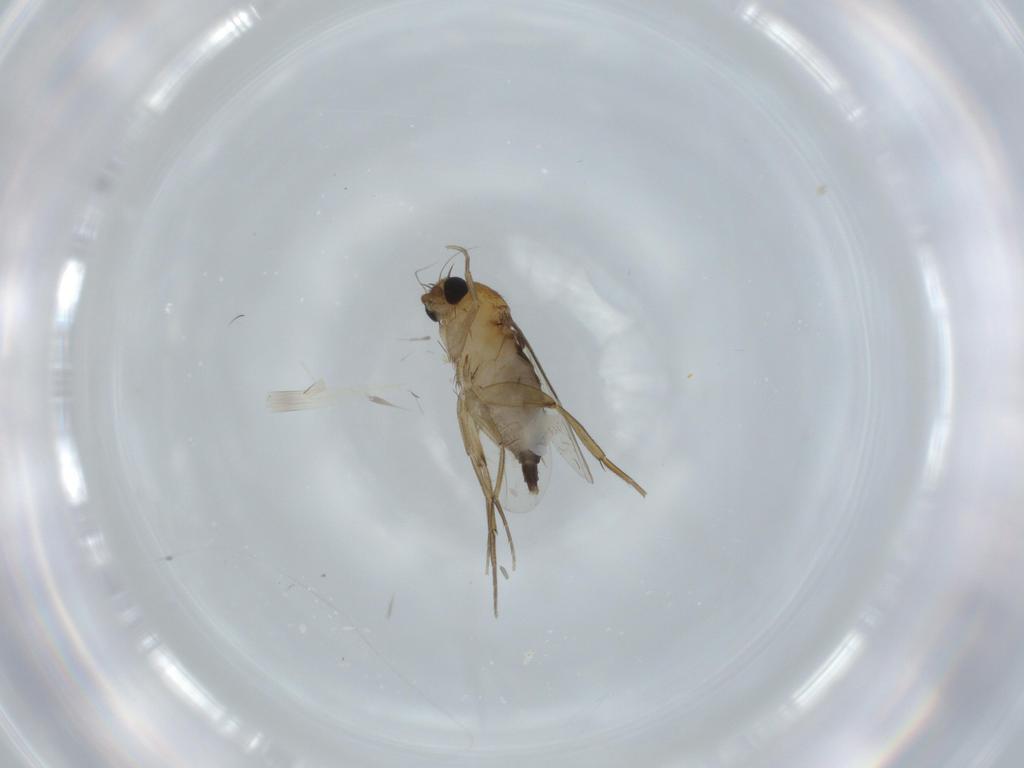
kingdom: Animalia
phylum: Arthropoda
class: Insecta
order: Diptera
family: Phoridae
